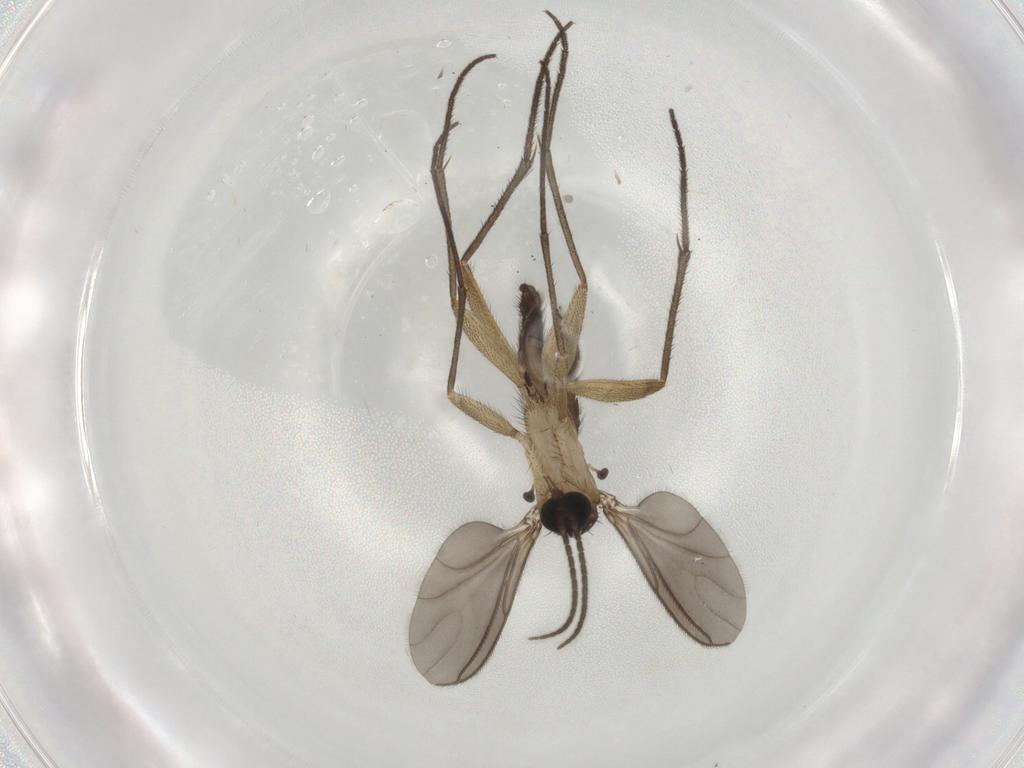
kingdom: Animalia
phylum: Arthropoda
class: Insecta
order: Diptera
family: Sciaridae
